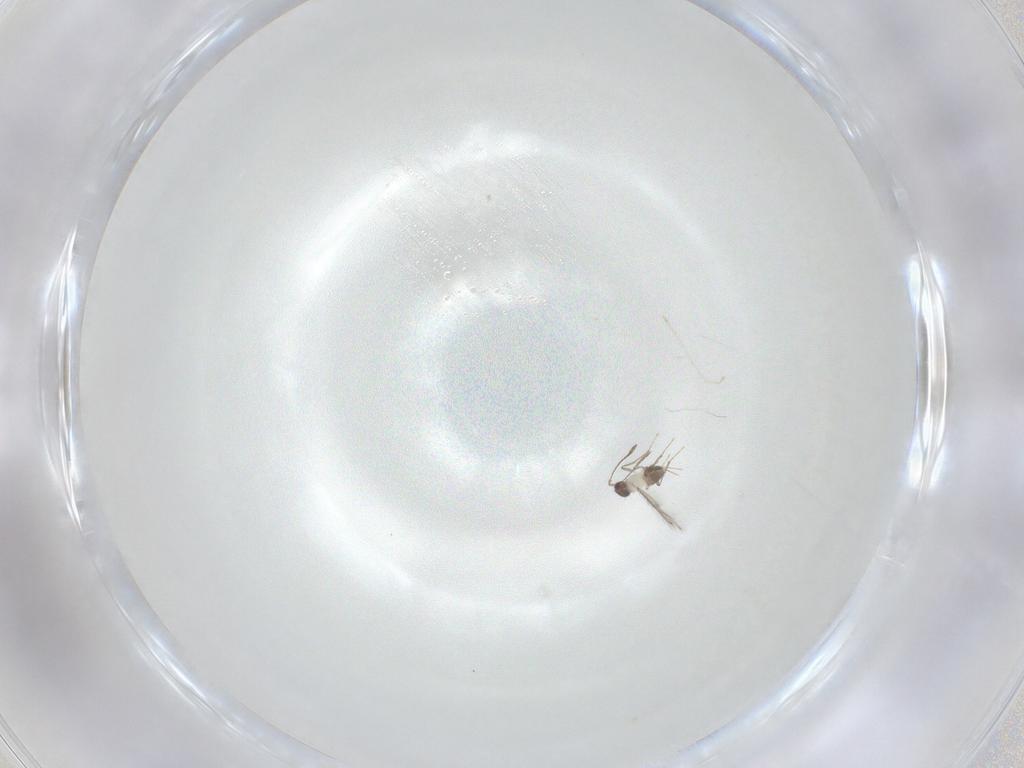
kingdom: Animalia
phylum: Arthropoda
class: Insecta
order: Hymenoptera
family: Mymaridae
